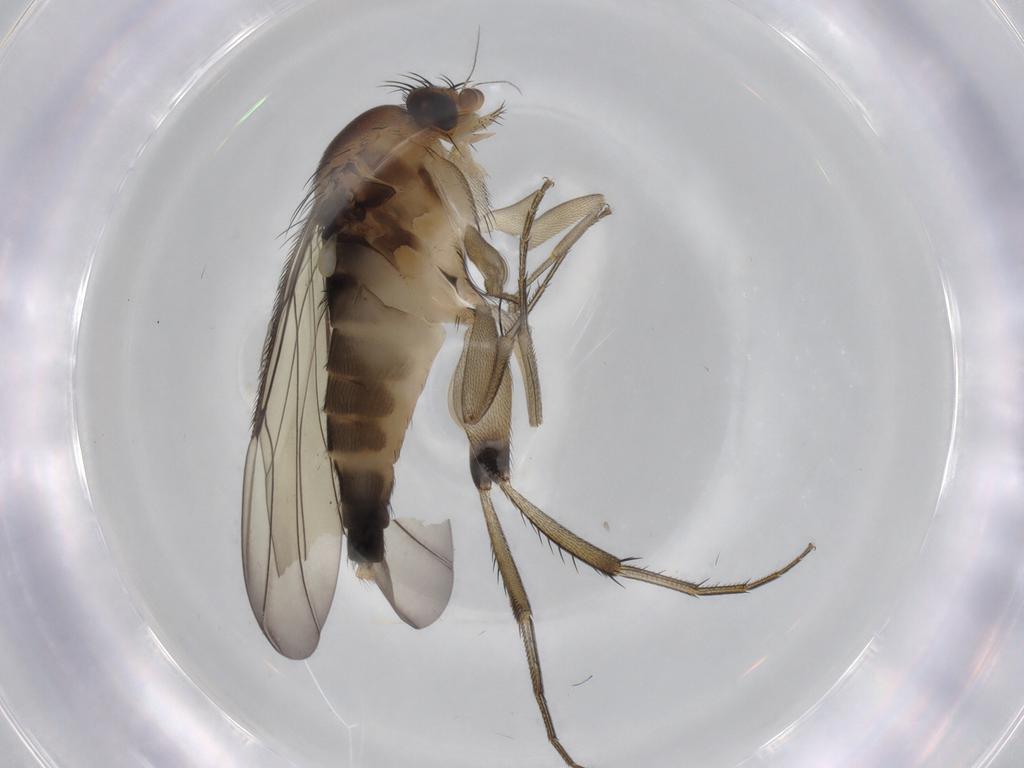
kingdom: Animalia
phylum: Arthropoda
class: Insecta
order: Diptera
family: Phoridae
